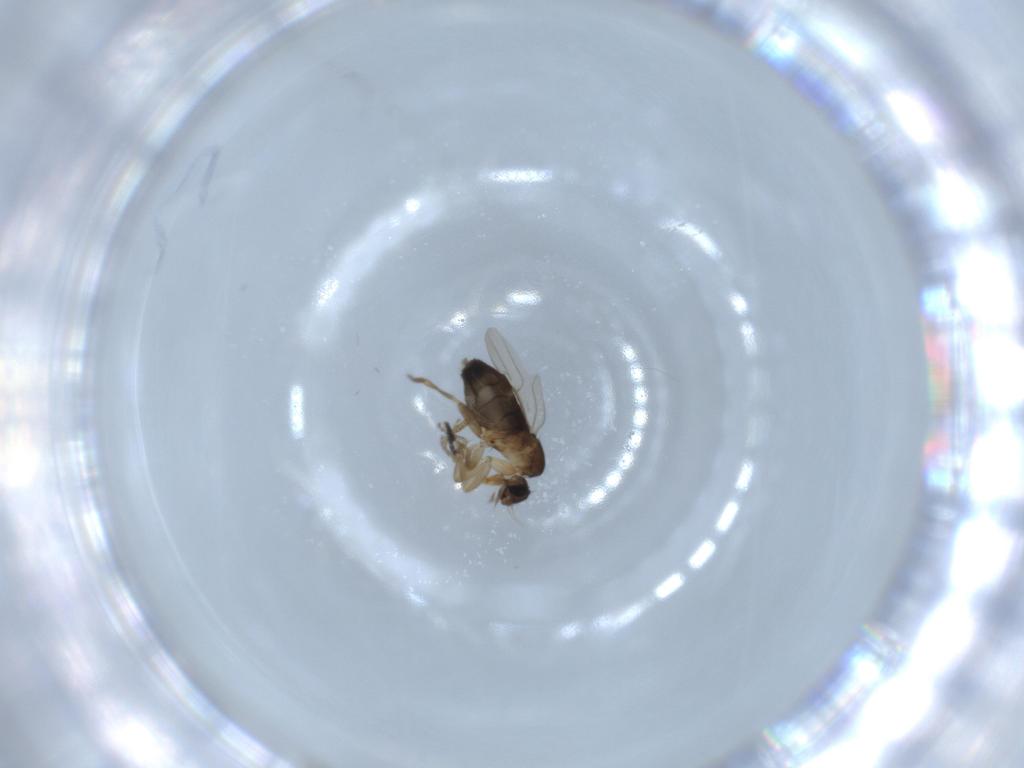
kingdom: Animalia
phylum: Arthropoda
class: Insecta
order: Diptera
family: Phoridae
